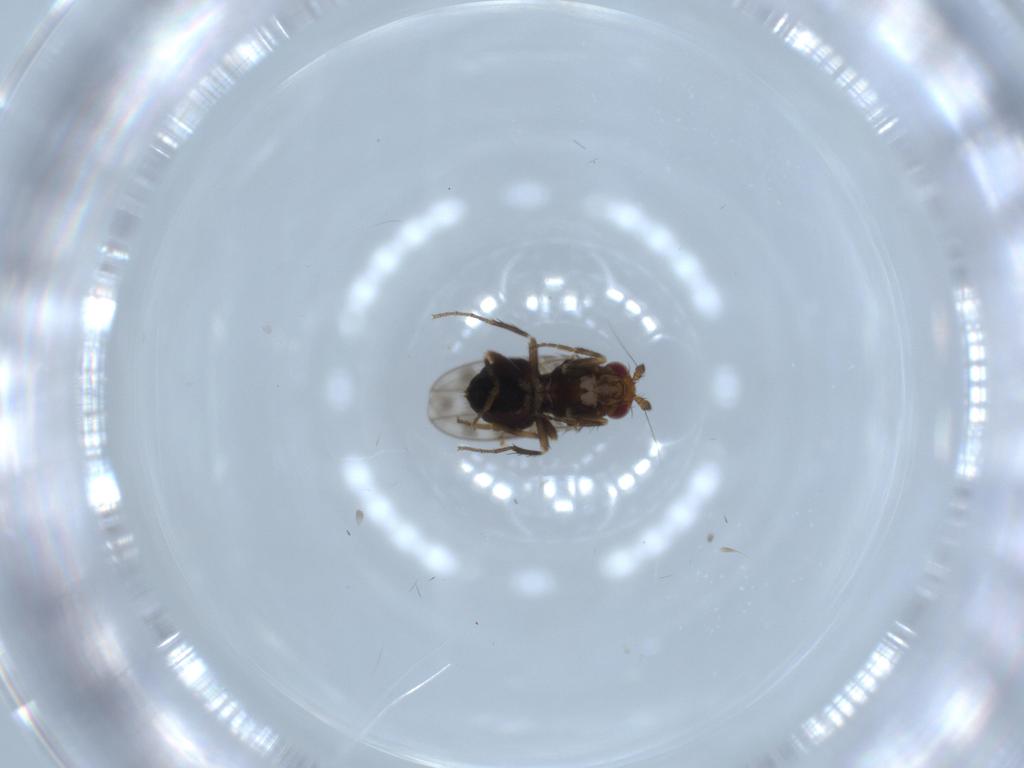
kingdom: Animalia
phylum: Arthropoda
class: Insecta
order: Diptera
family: Sphaeroceridae
